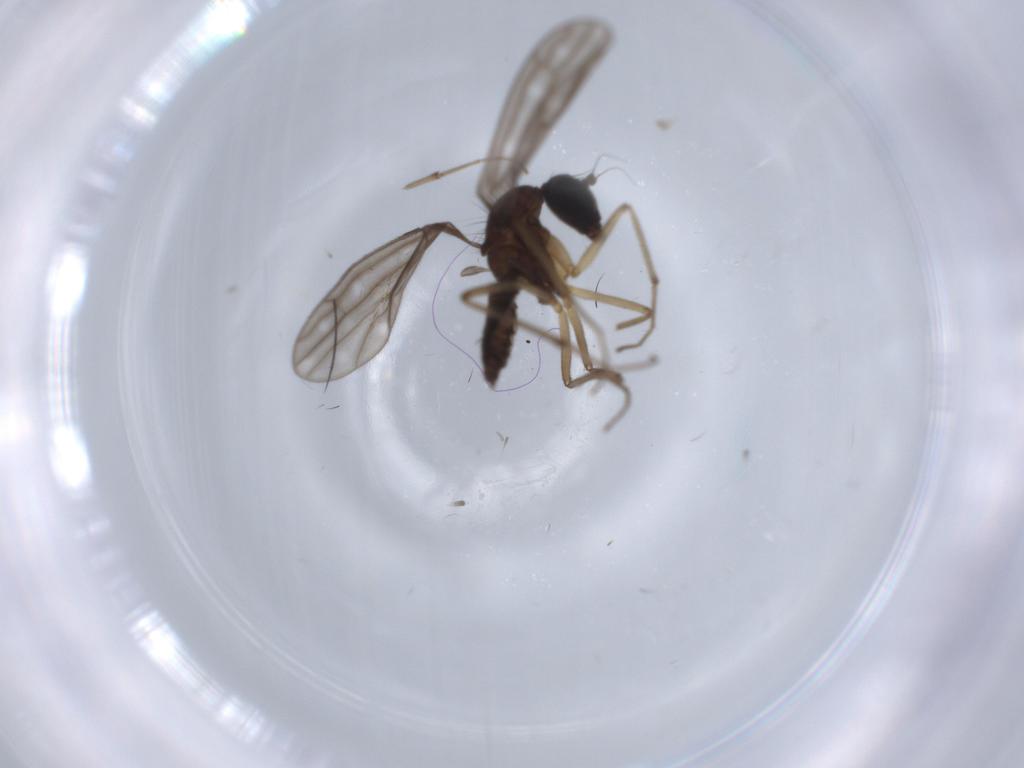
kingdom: Animalia
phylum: Arthropoda
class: Insecta
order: Diptera
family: Empididae
